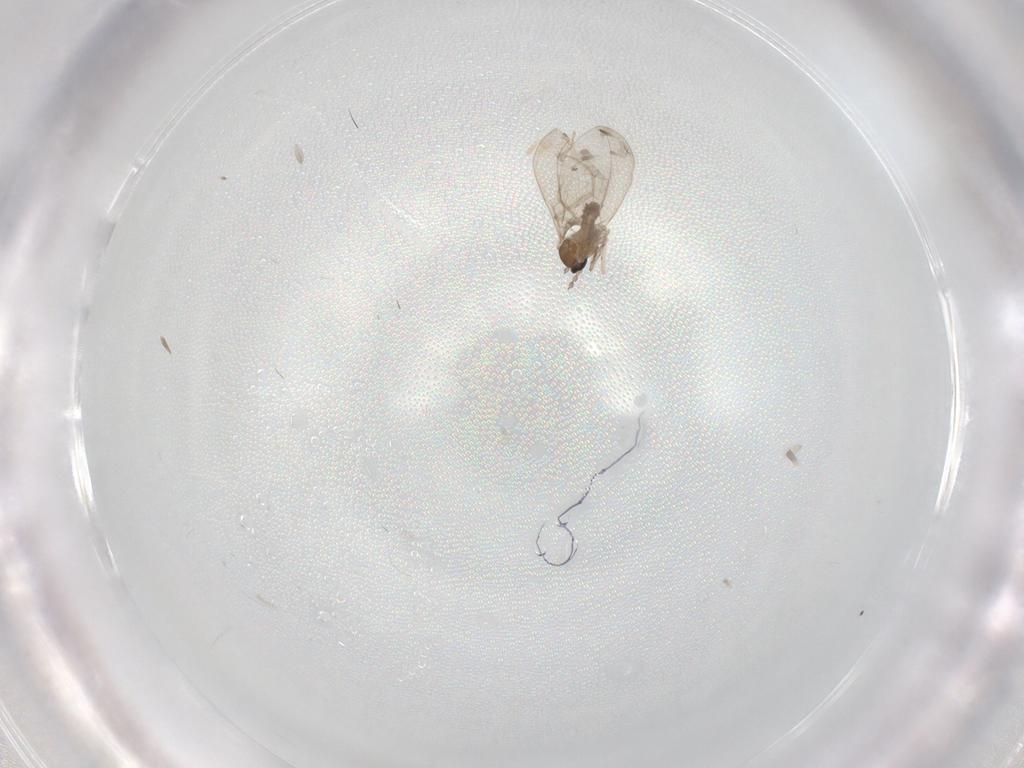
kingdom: Animalia
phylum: Arthropoda
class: Insecta
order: Diptera
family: Cecidomyiidae
